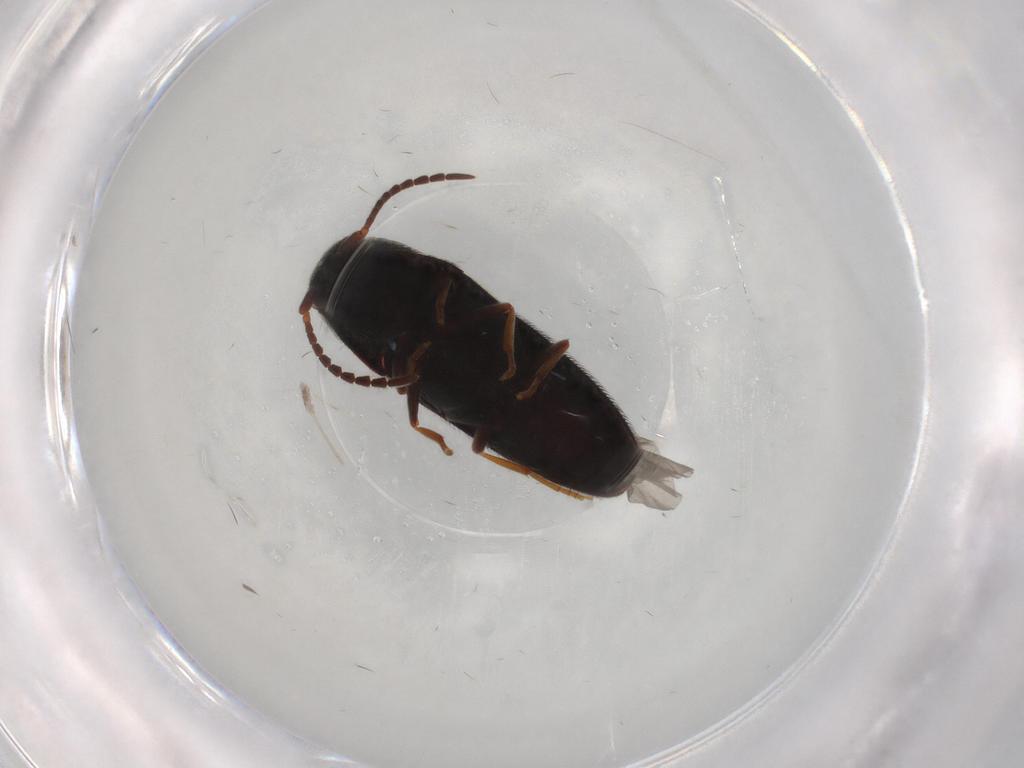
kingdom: Animalia
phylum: Arthropoda
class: Insecta
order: Coleoptera
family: Eucnemidae
